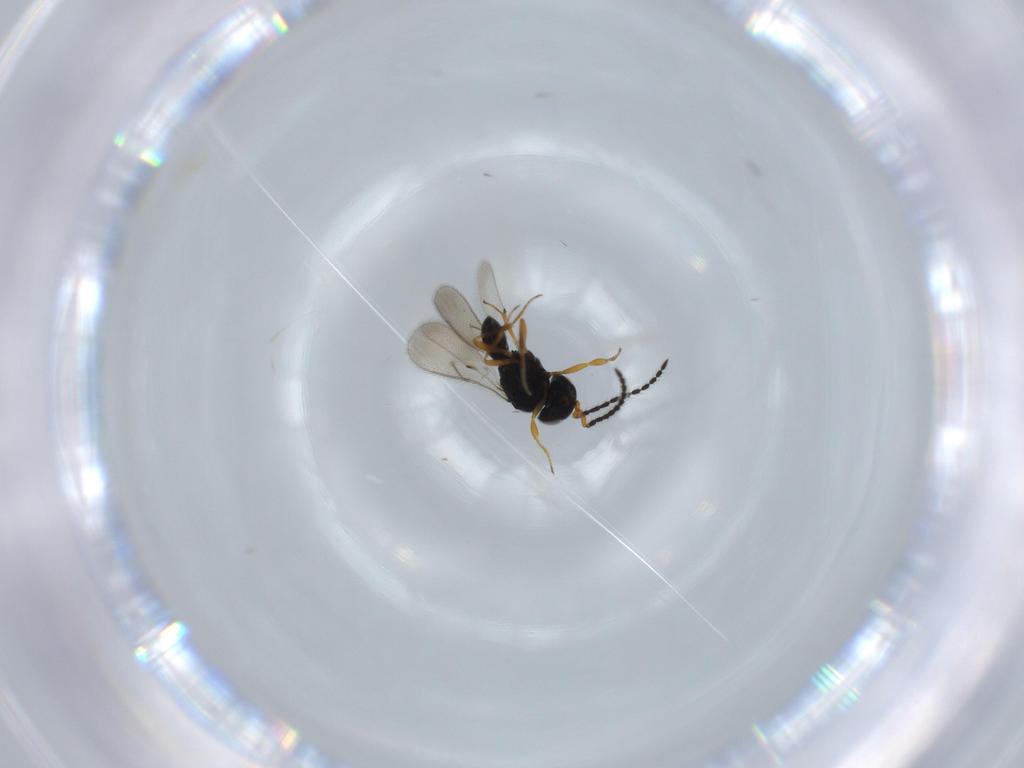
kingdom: Animalia
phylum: Arthropoda
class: Insecta
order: Hymenoptera
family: Scelionidae
